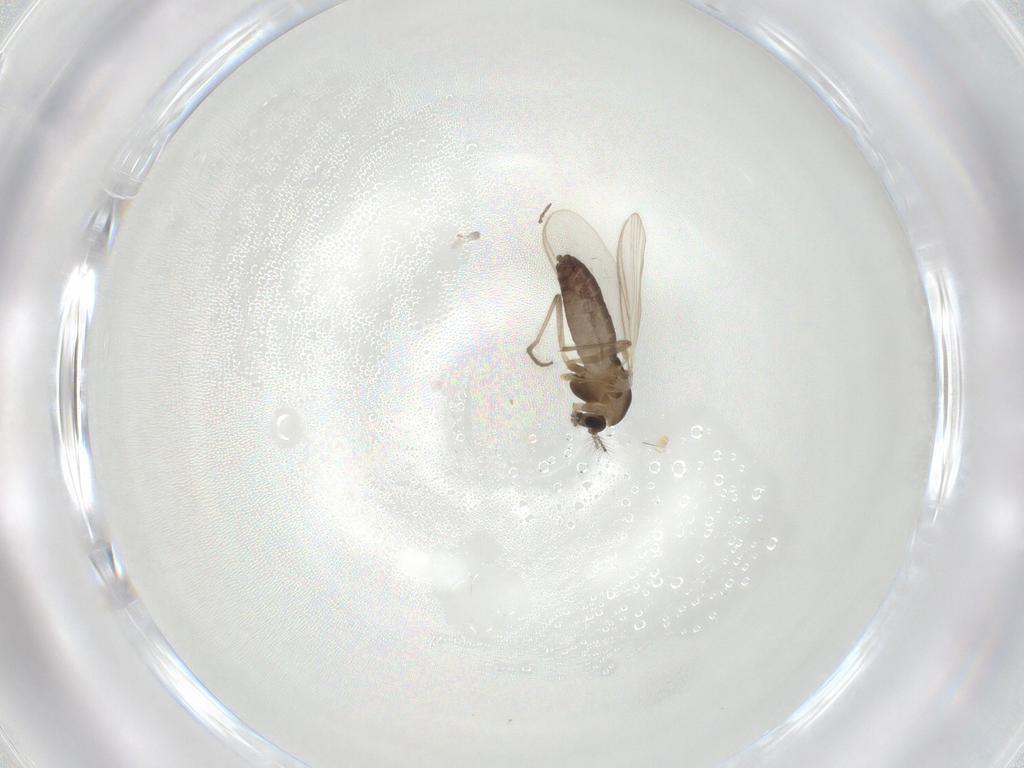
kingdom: Animalia
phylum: Arthropoda
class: Insecta
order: Diptera
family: Chironomidae
